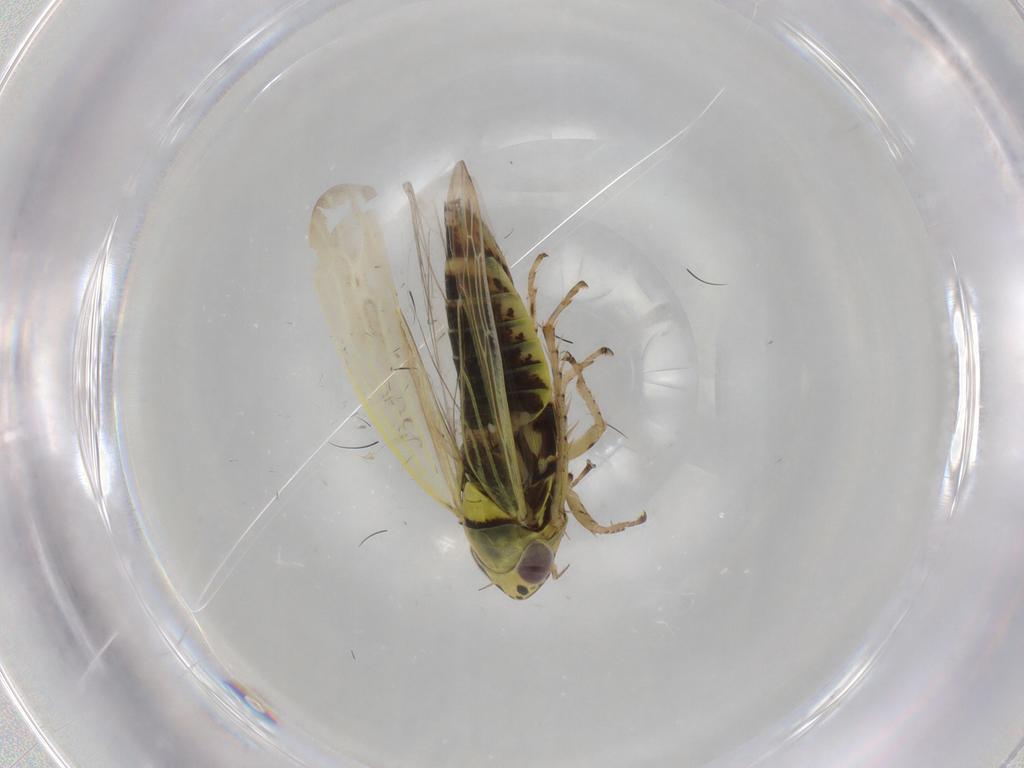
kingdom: Animalia
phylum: Arthropoda
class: Insecta
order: Hemiptera
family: Cicadellidae
